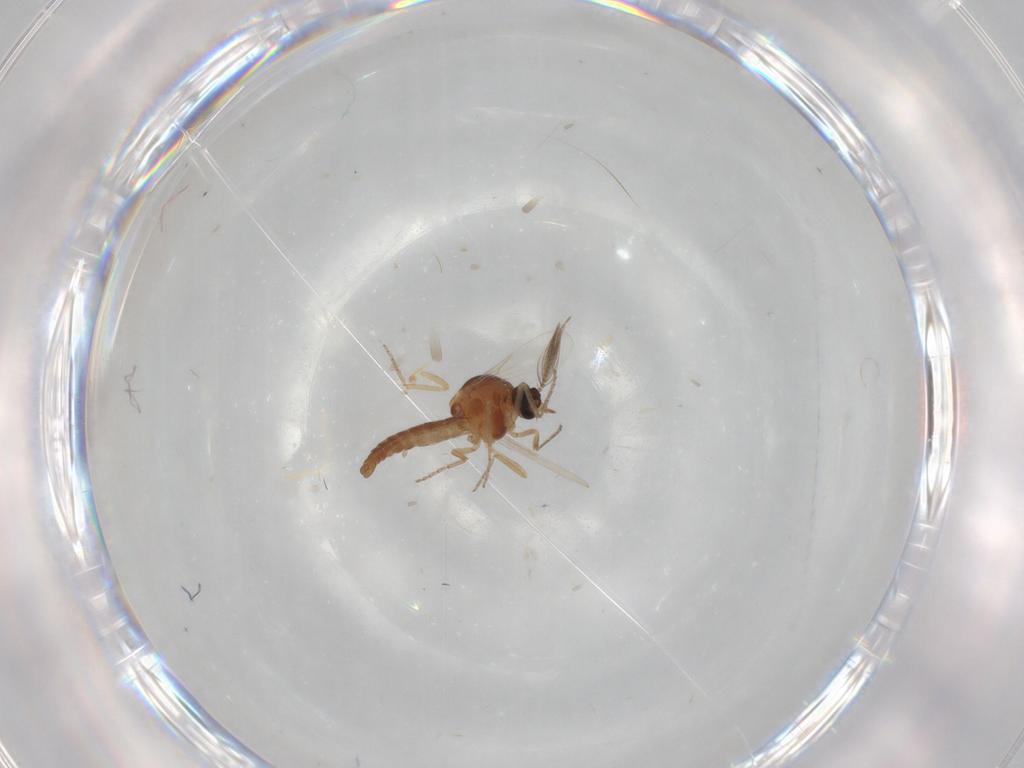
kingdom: Animalia
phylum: Arthropoda
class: Insecta
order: Diptera
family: Ceratopogonidae
